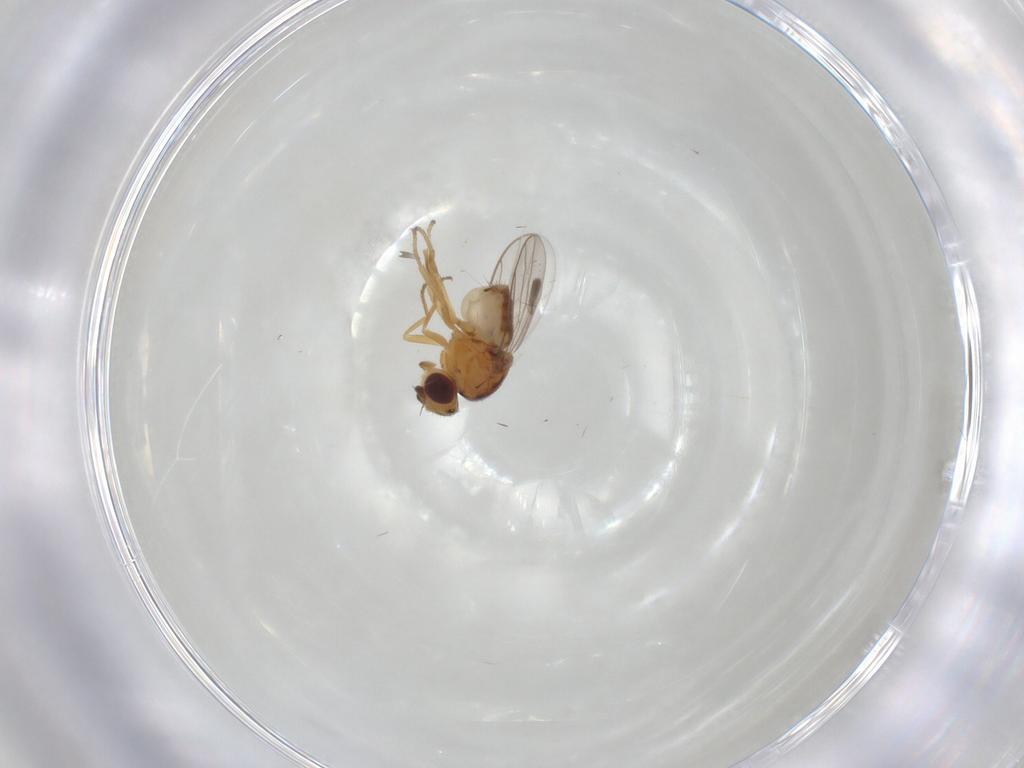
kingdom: Animalia
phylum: Arthropoda
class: Insecta
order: Diptera
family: Chloropidae
